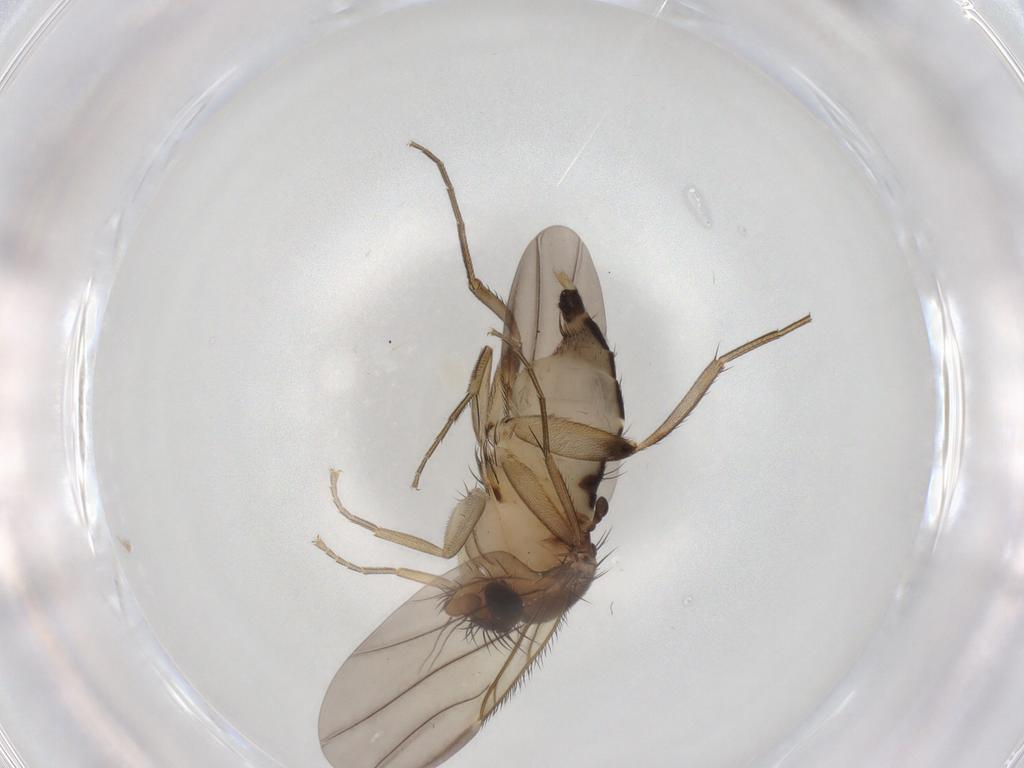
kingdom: Animalia
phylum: Arthropoda
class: Insecta
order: Diptera
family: Phoridae
